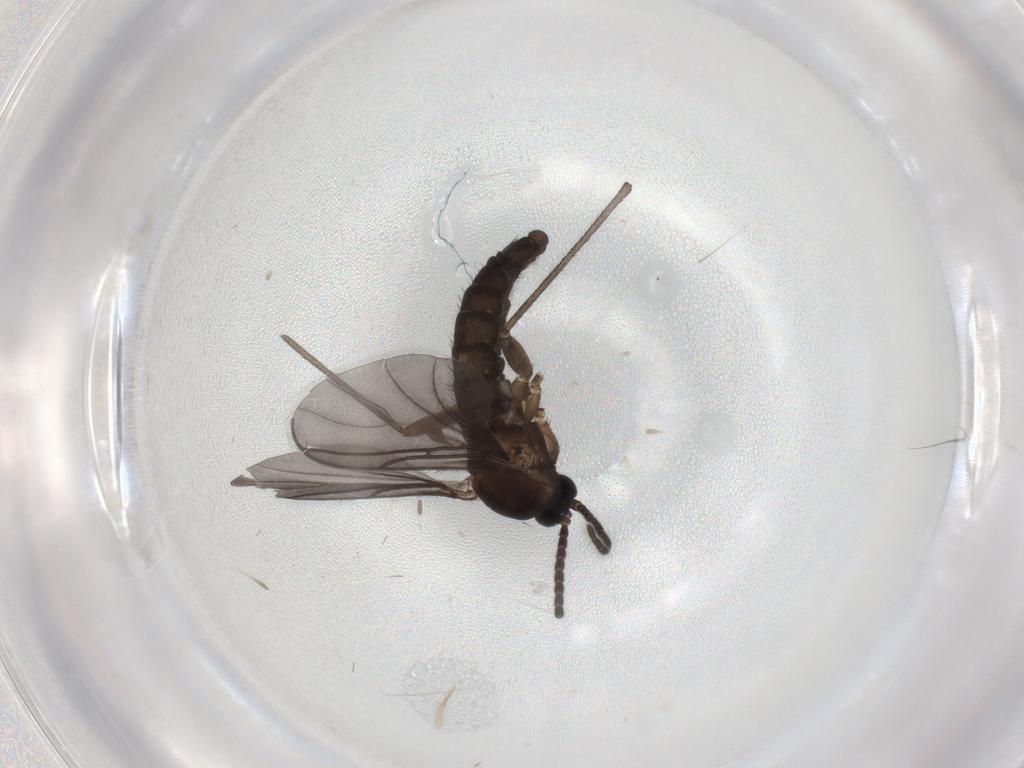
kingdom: Animalia
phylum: Arthropoda
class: Insecta
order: Diptera
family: Sciaridae
